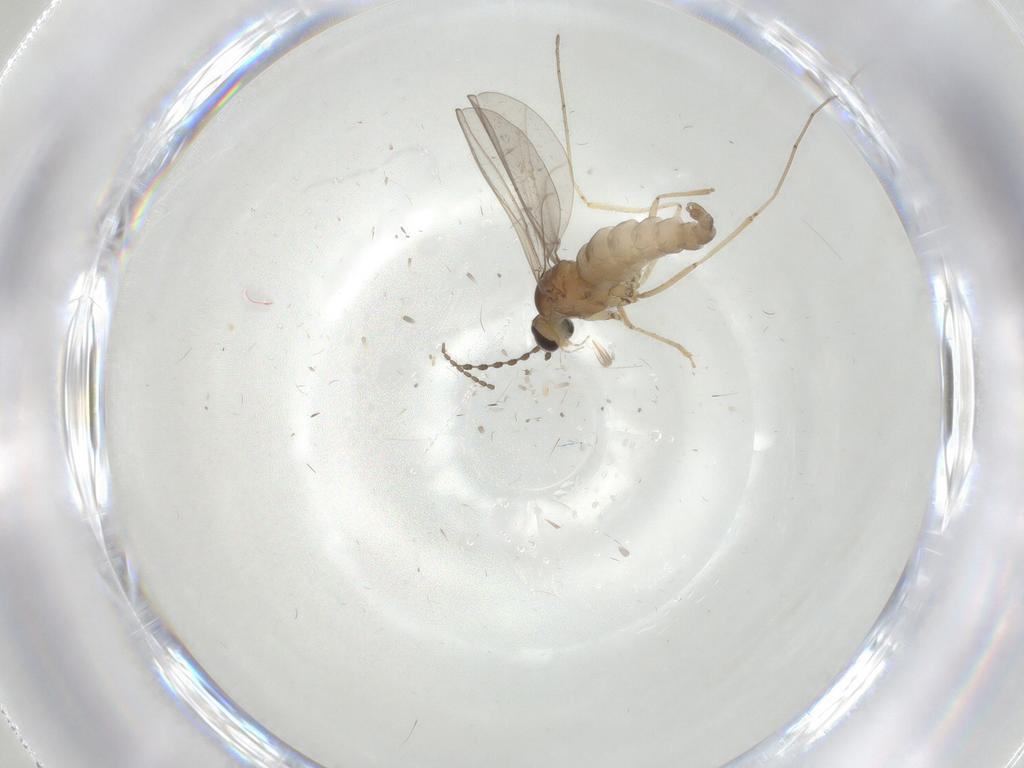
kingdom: Animalia
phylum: Arthropoda
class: Insecta
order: Diptera
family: Cecidomyiidae
